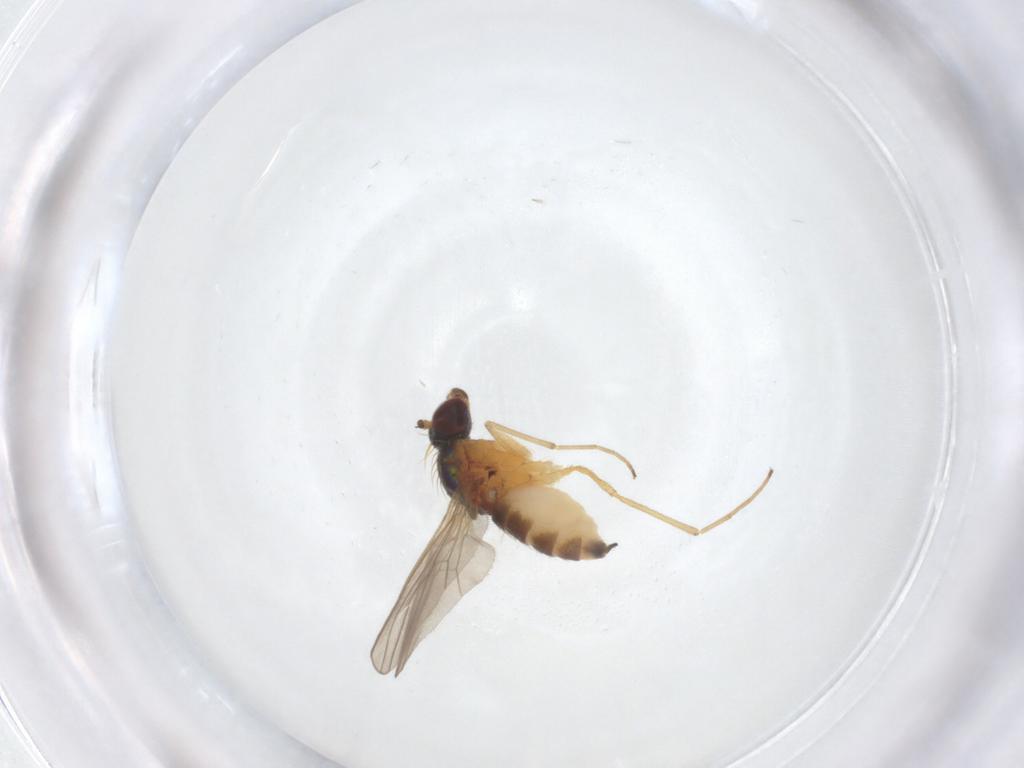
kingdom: Animalia
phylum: Arthropoda
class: Insecta
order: Diptera
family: Dolichopodidae
